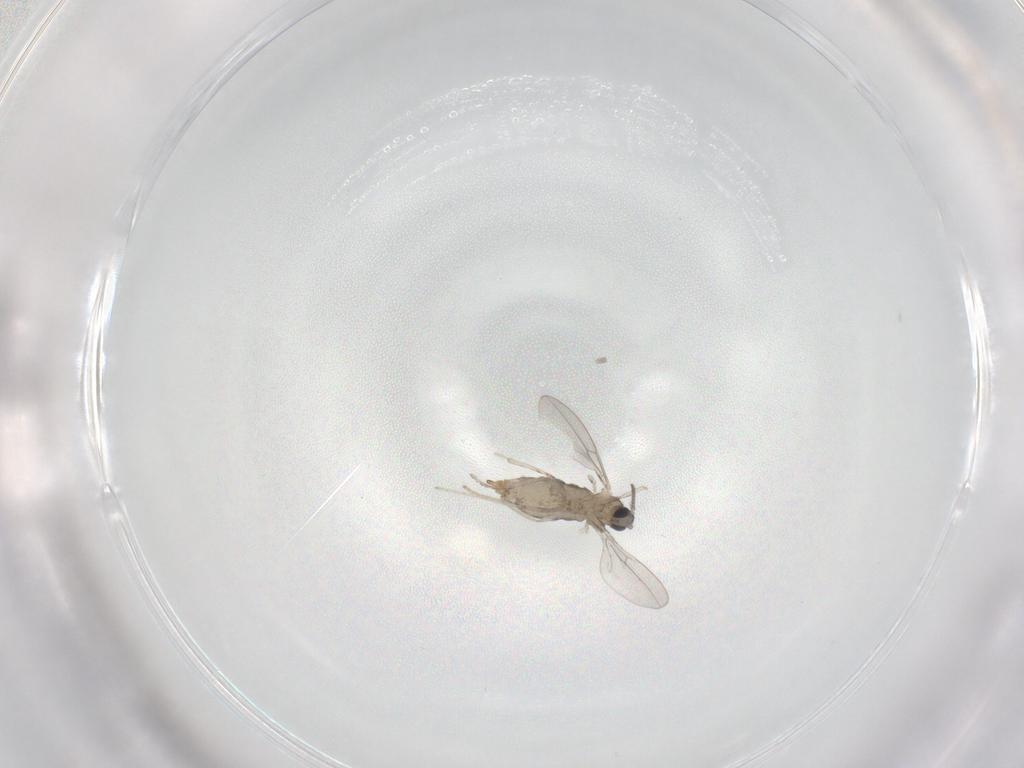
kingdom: Animalia
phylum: Arthropoda
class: Insecta
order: Diptera
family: Cecidomyiidae
